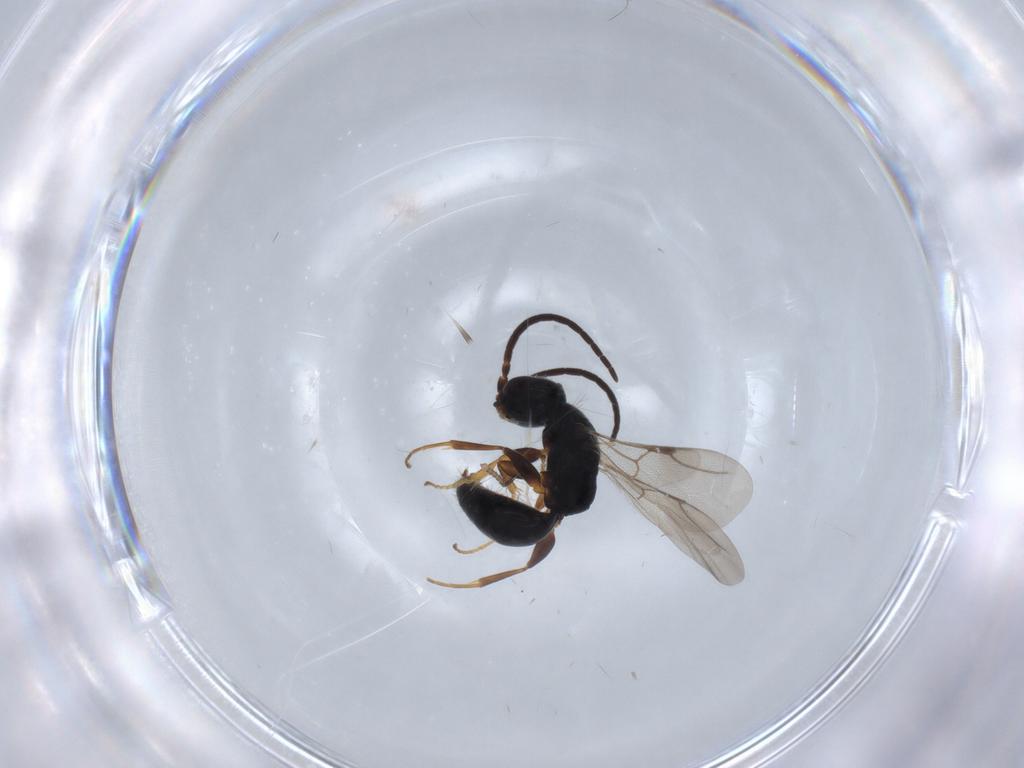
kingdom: Animalia
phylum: Arthropoda
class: Insecta
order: Hymenoptera
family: Bethylidae
